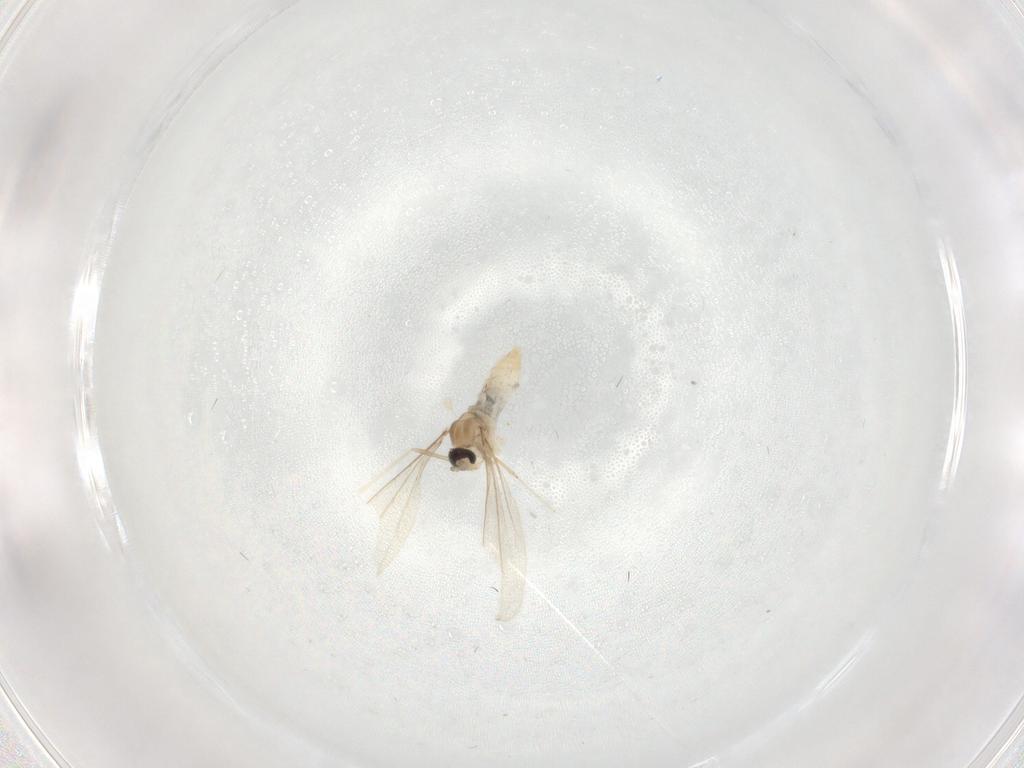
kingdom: Animalia
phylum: Arthropoda
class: Insecta
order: Diptera
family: Cecidomyiidae
